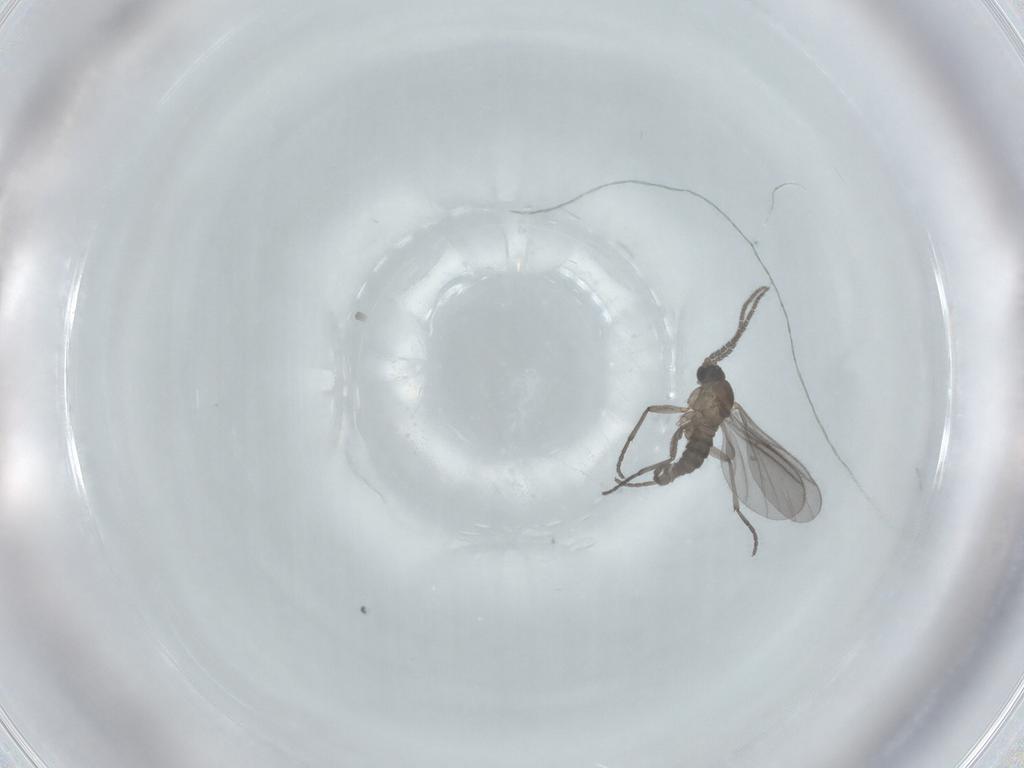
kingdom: Animalia
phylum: Arthropoda
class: Insecta
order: Diptera
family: Sciaridae
